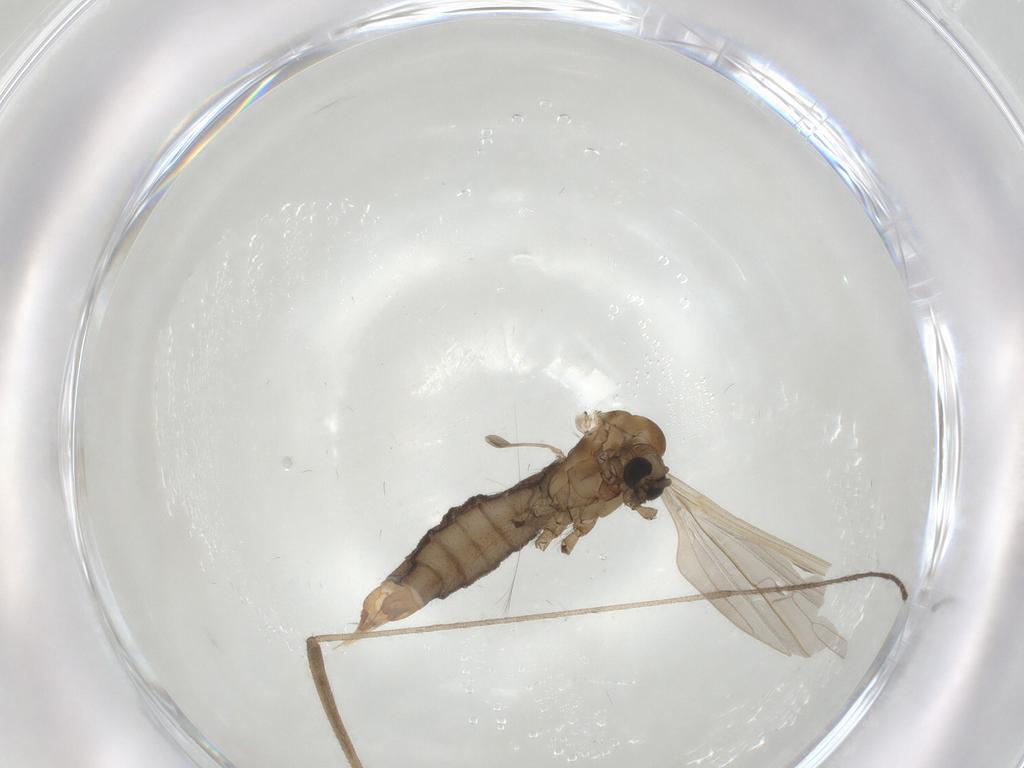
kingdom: Animalia
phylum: Arthropoda
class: Insecta
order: Diptera
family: Limoniidae
